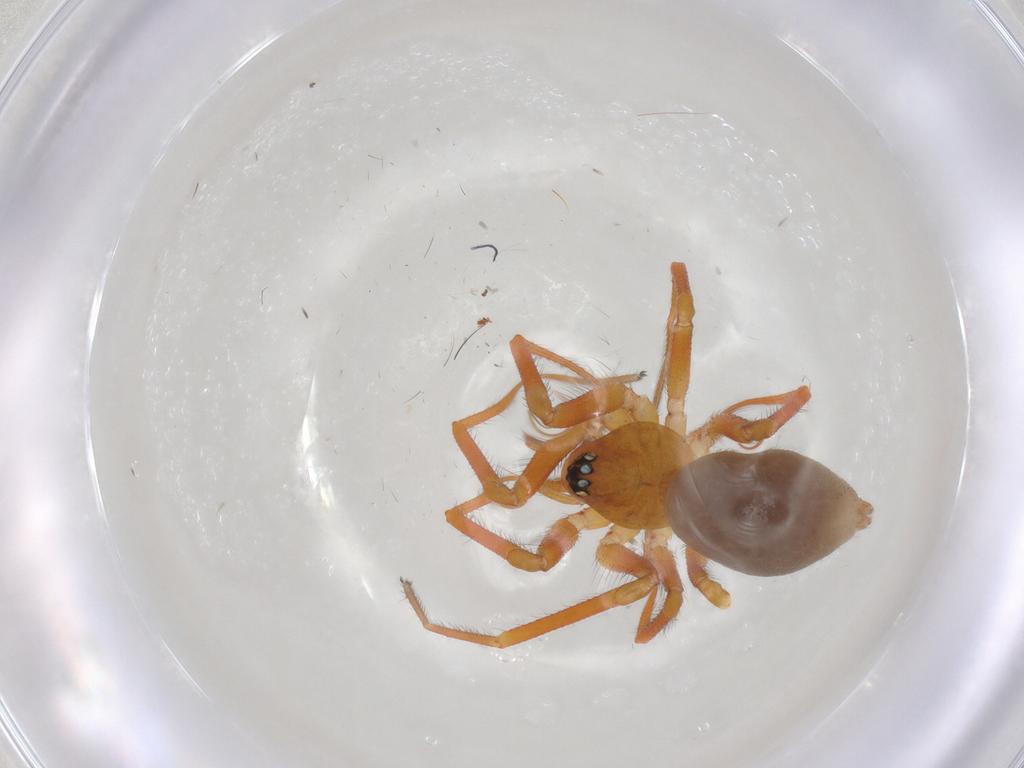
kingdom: Animalia
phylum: Arthropoda
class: Arachnida
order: Araneae
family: Linyphiidae
